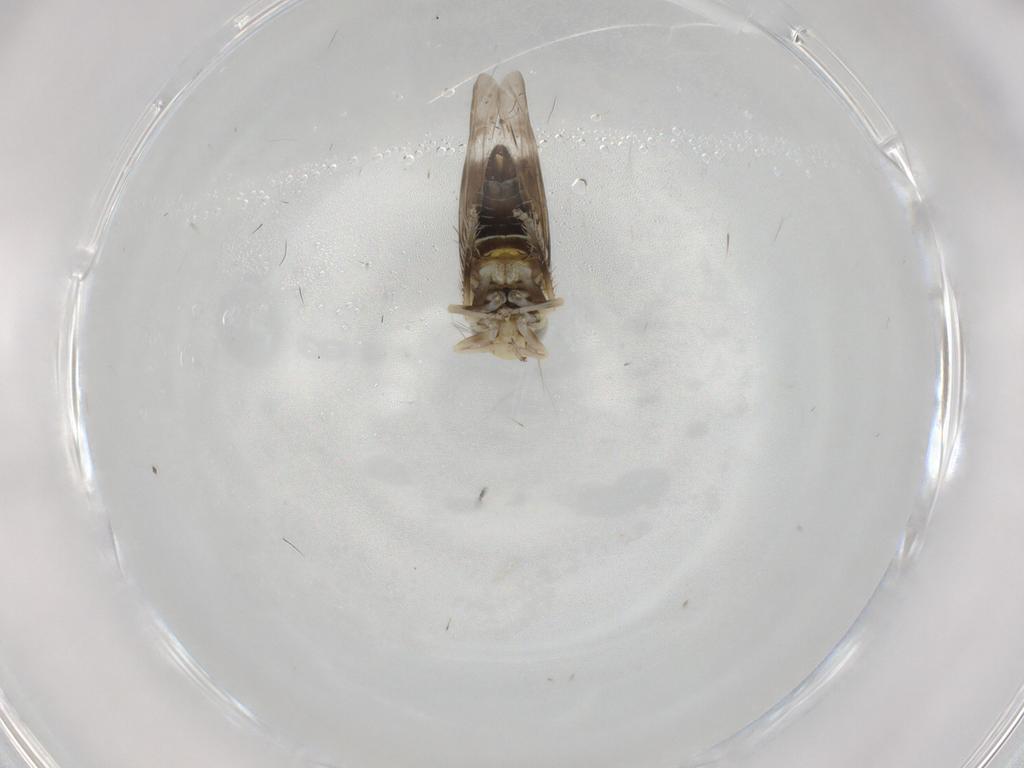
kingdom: Animalia
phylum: Arthropoda
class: Insecta
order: Hemiptera
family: Cicadellidae
